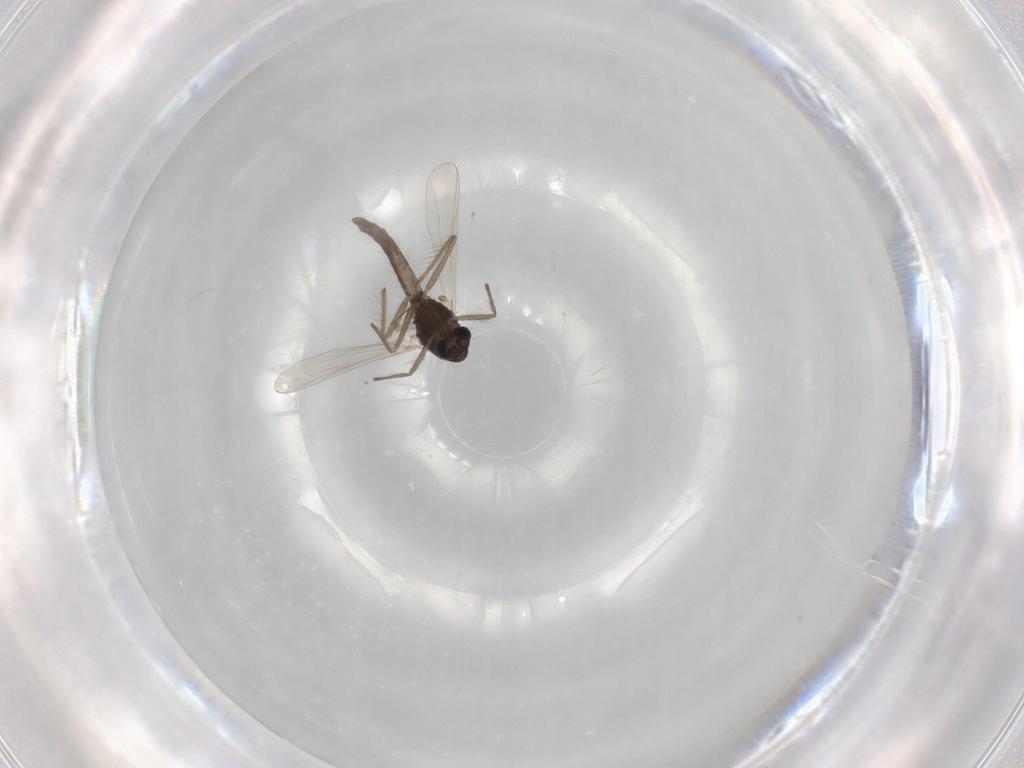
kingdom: Animalia
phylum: Arthropoda
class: Insecta
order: Diptera
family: Chironomidae
